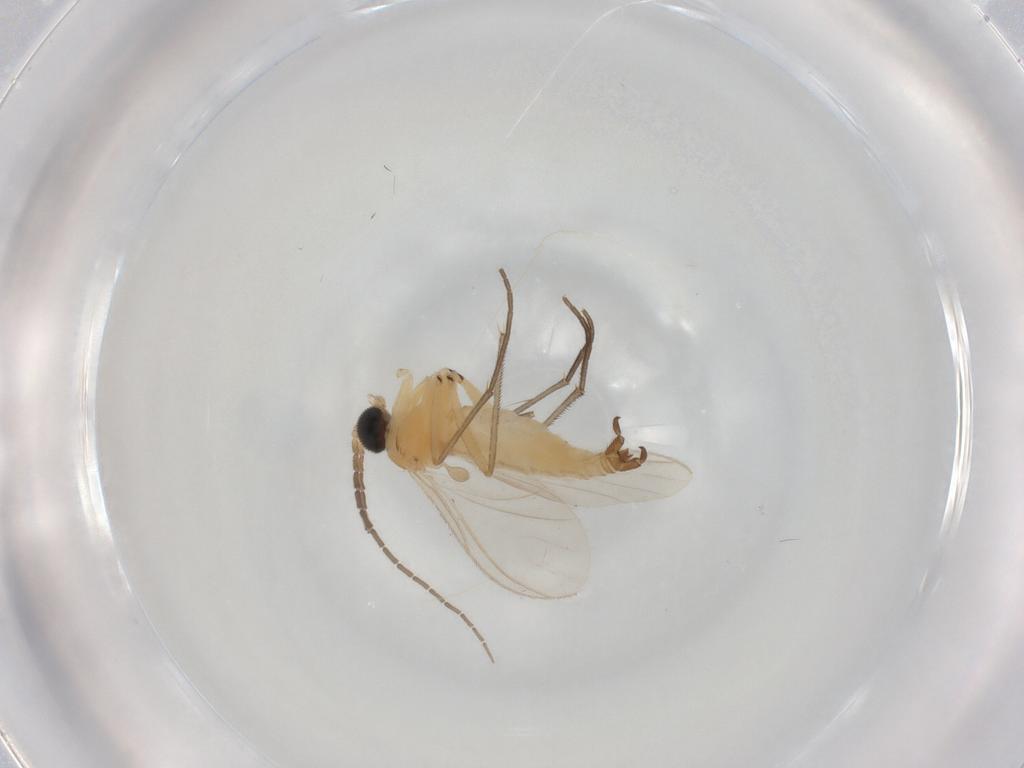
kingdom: Animalia
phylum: Arthropoda
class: Insecta
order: Diptera
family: Sciaridae
